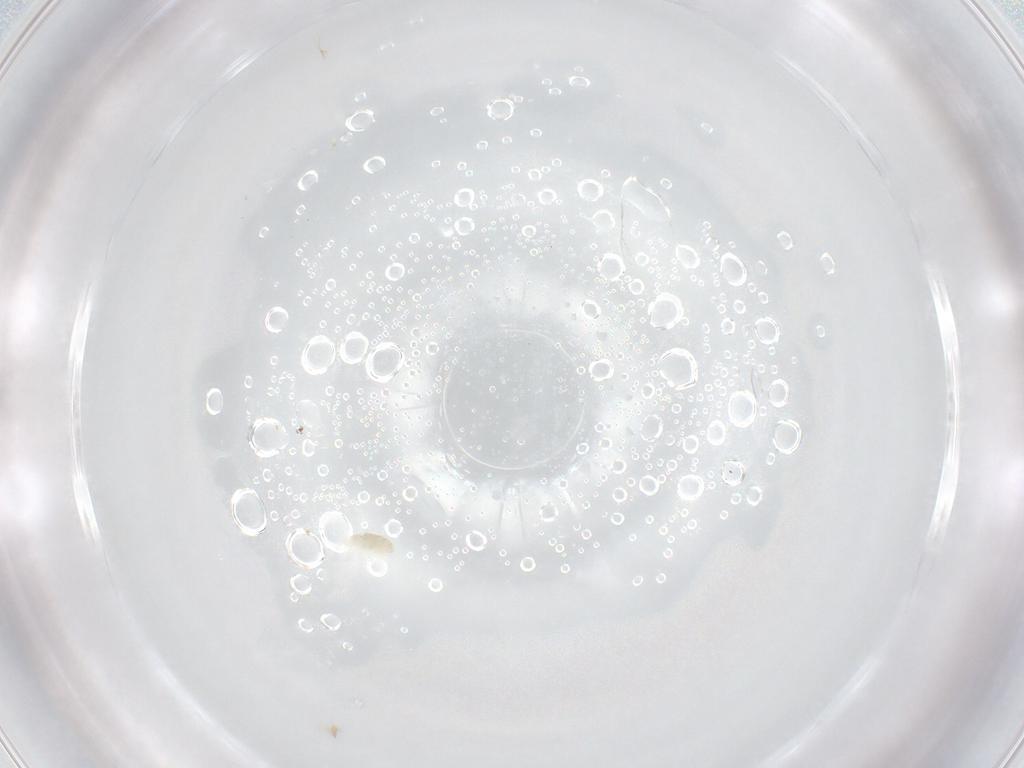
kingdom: Animalia
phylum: Arthropoda
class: Arachnida
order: Trombidiformes
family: Eupodidae
